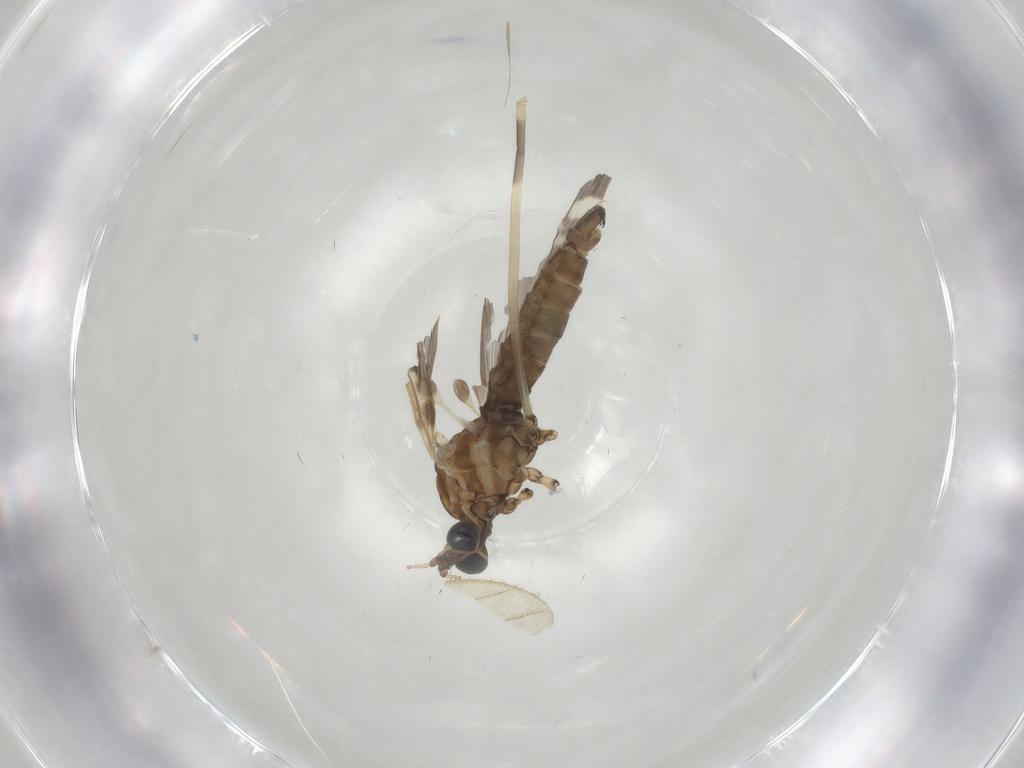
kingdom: Animalia
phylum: Arthropoda
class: Insecta
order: Diptera
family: Limoniidae
